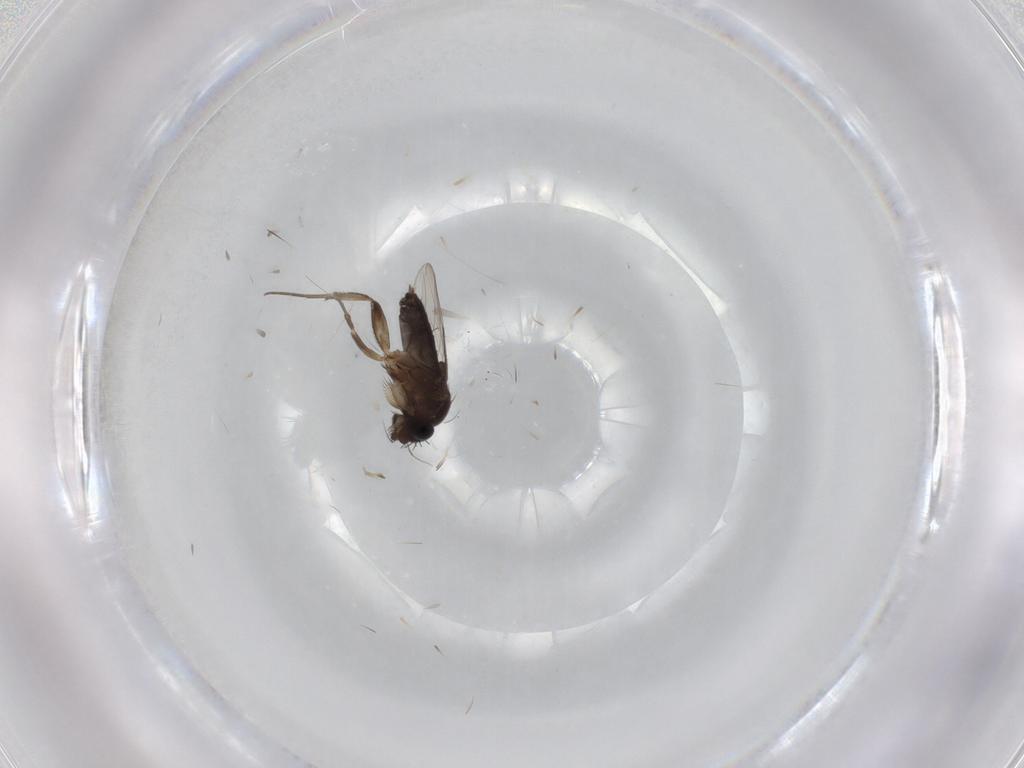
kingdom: Animalia
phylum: Arthropoda
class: Insecta
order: Diptera
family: Phoridae
